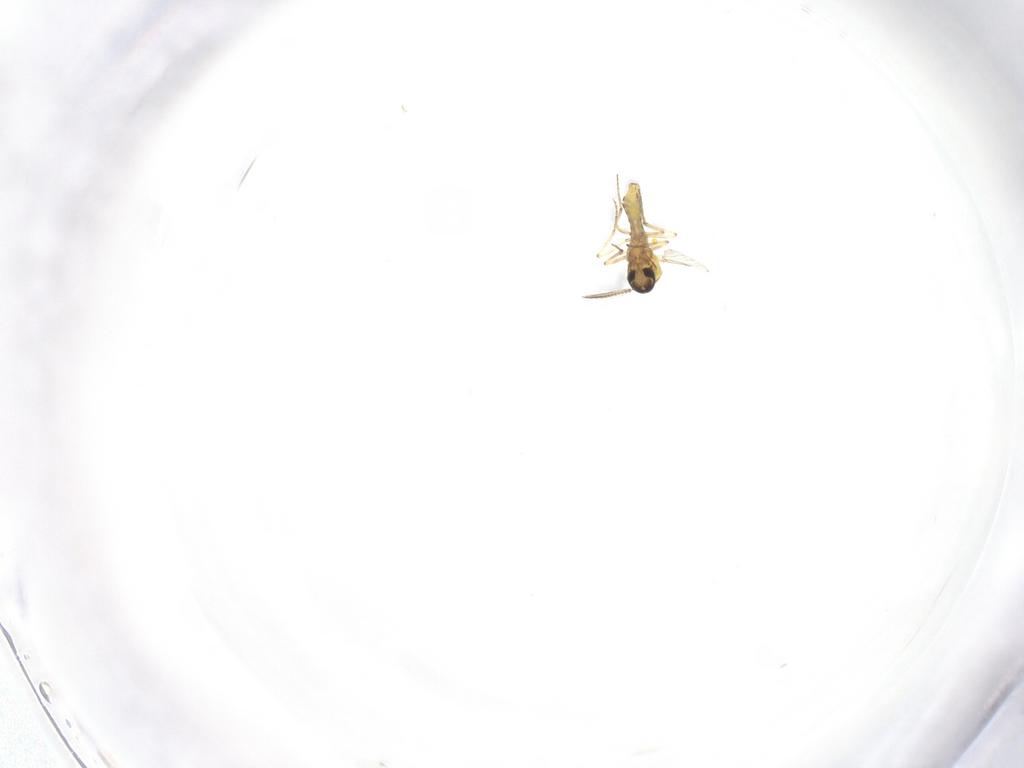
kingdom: Animalia
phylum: Arthropoda
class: Insecta
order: Diptera
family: Ceratopogonidae
